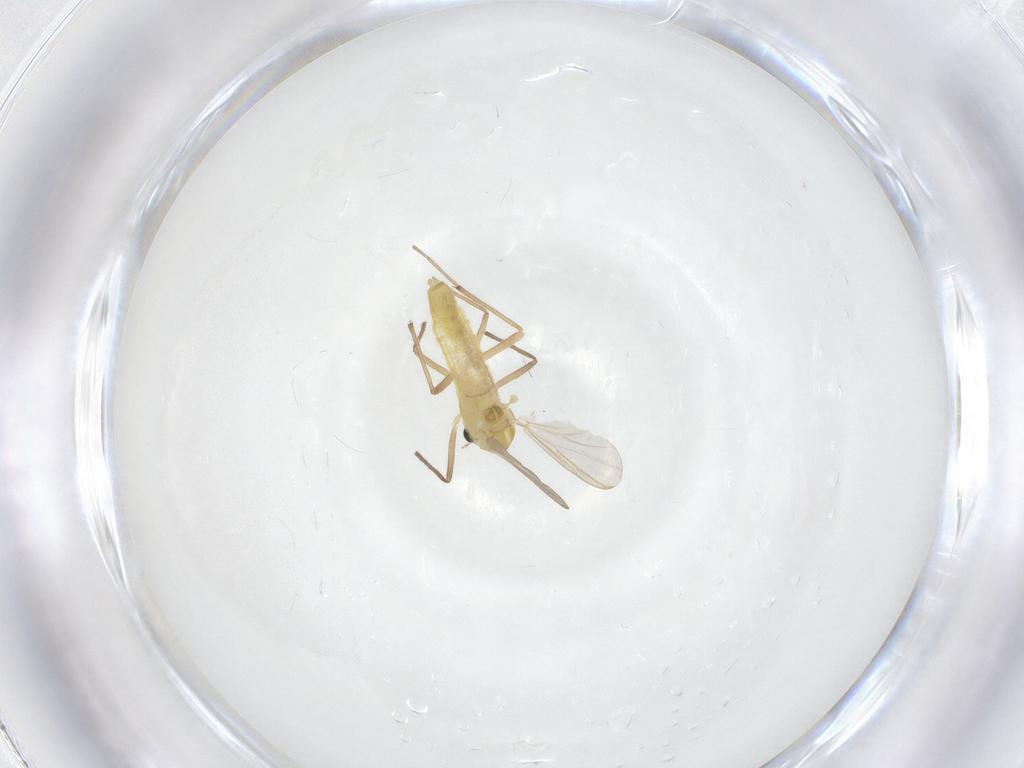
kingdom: Animalia
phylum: Arthropoda
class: Insecta
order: Diptera
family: Chironomidae
